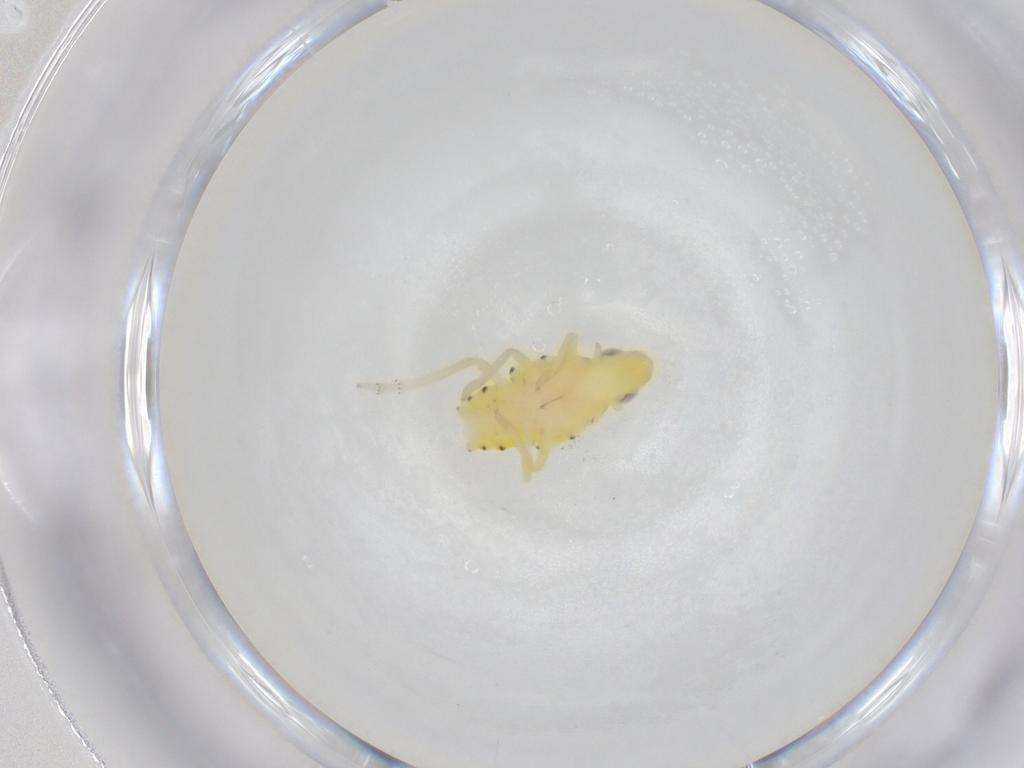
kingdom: Animalia
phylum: Arthropoda
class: Insecta
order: Hemiptera
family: Tropiduchidae
